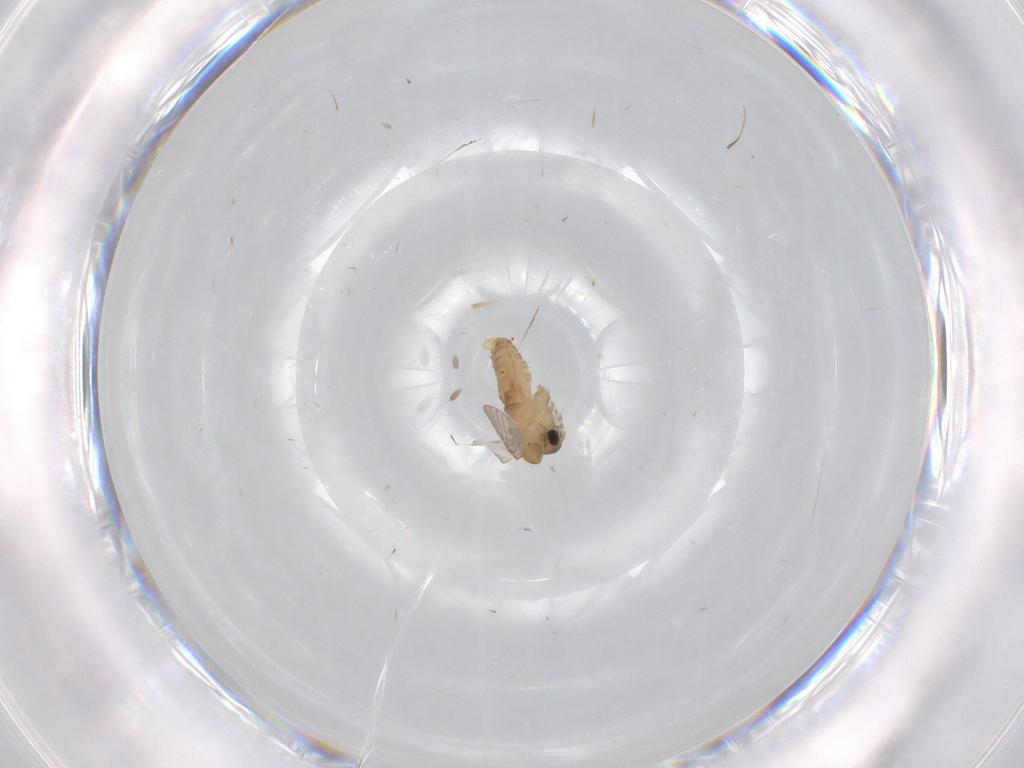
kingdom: Animalia
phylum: Arthropoda
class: Insecta
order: Diptera
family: Psychodidae
